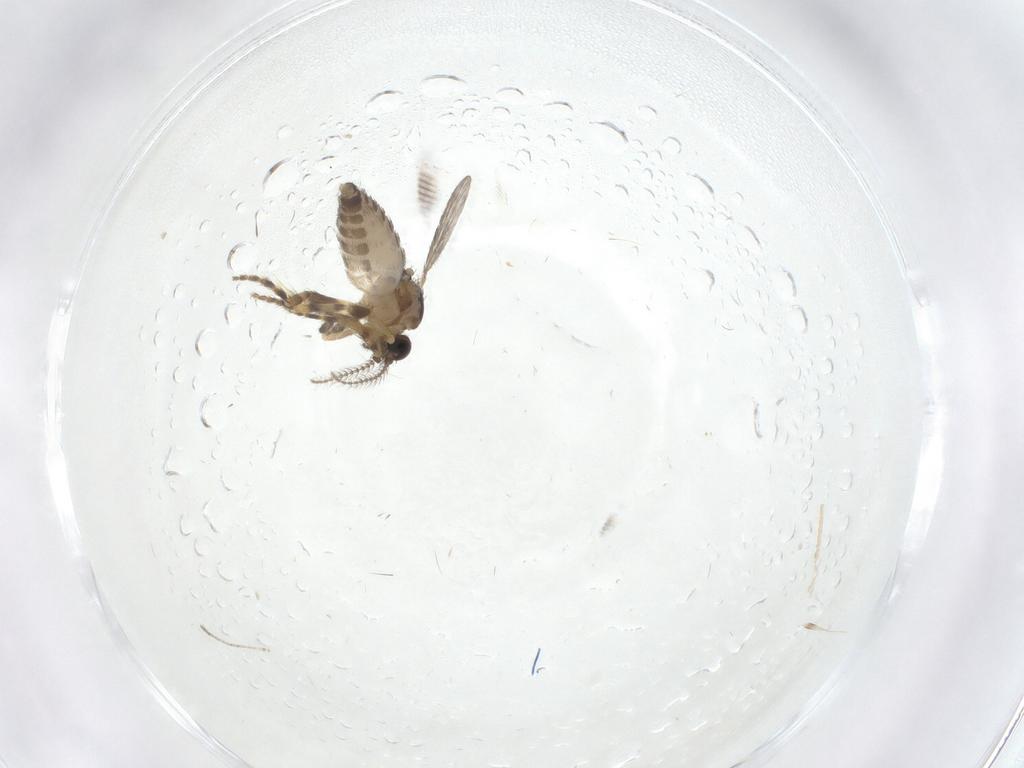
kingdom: Animalia
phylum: Arthropoda
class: Insecta
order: Diptera
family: Ceratopogonidae
